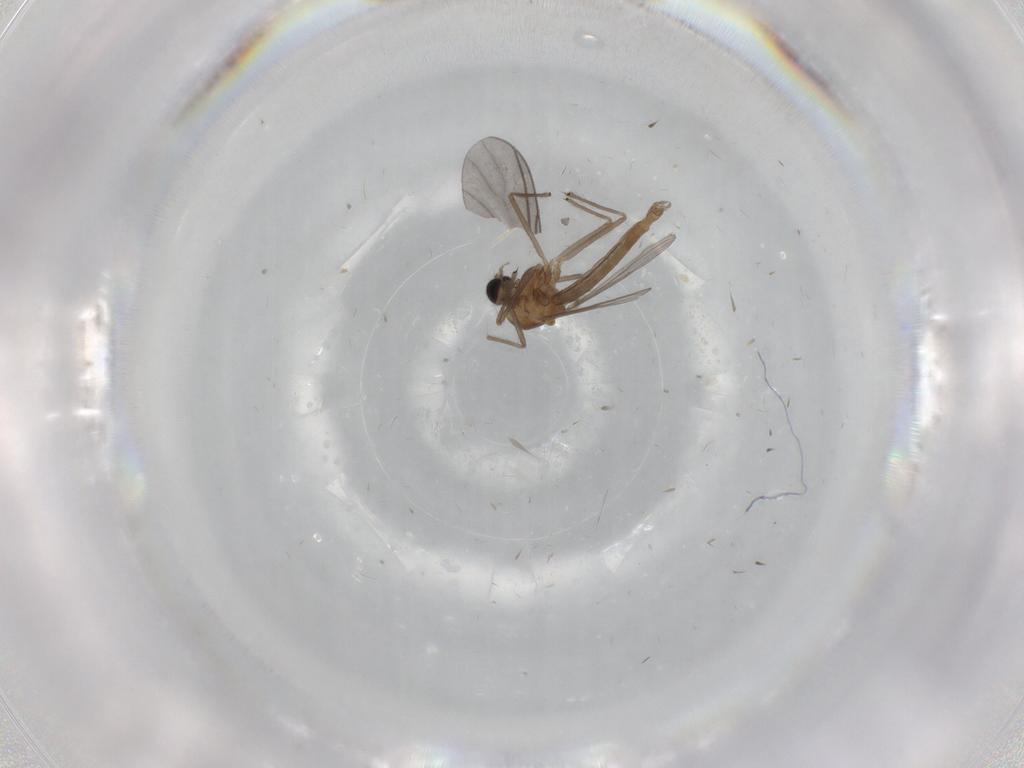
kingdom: Animalia
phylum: Arthropoda
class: Insecta
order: Diptera
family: Chironomidae
